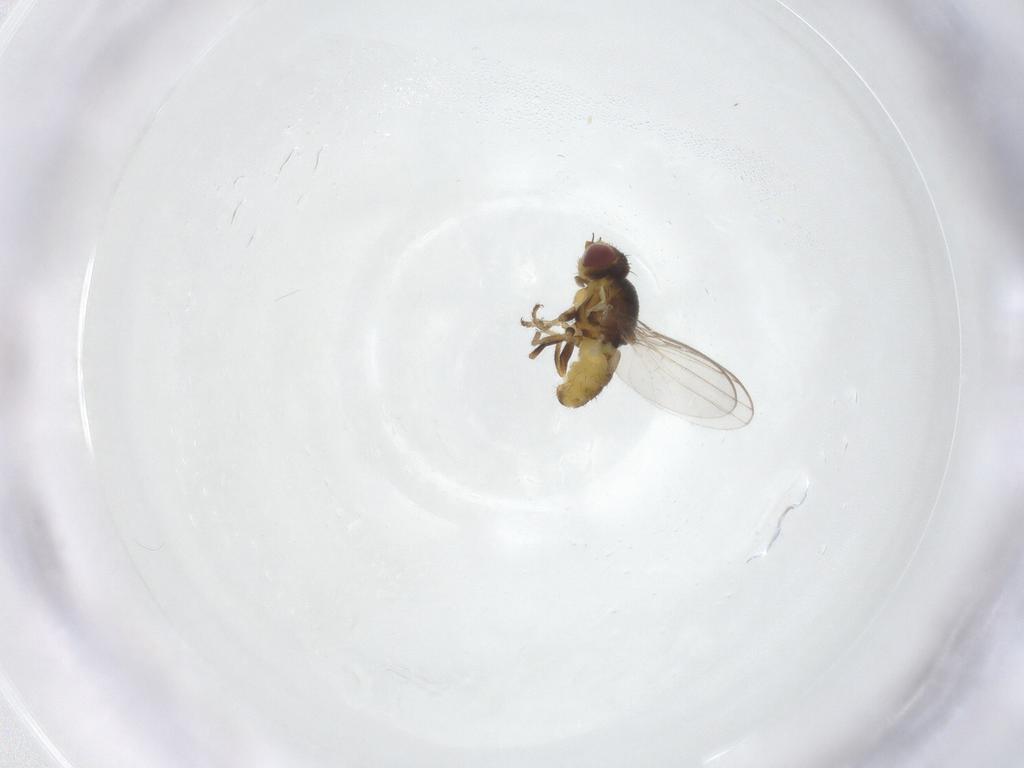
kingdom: Animalia
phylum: Arthropoda
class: Insecta
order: Diptera
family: Chloropidae
